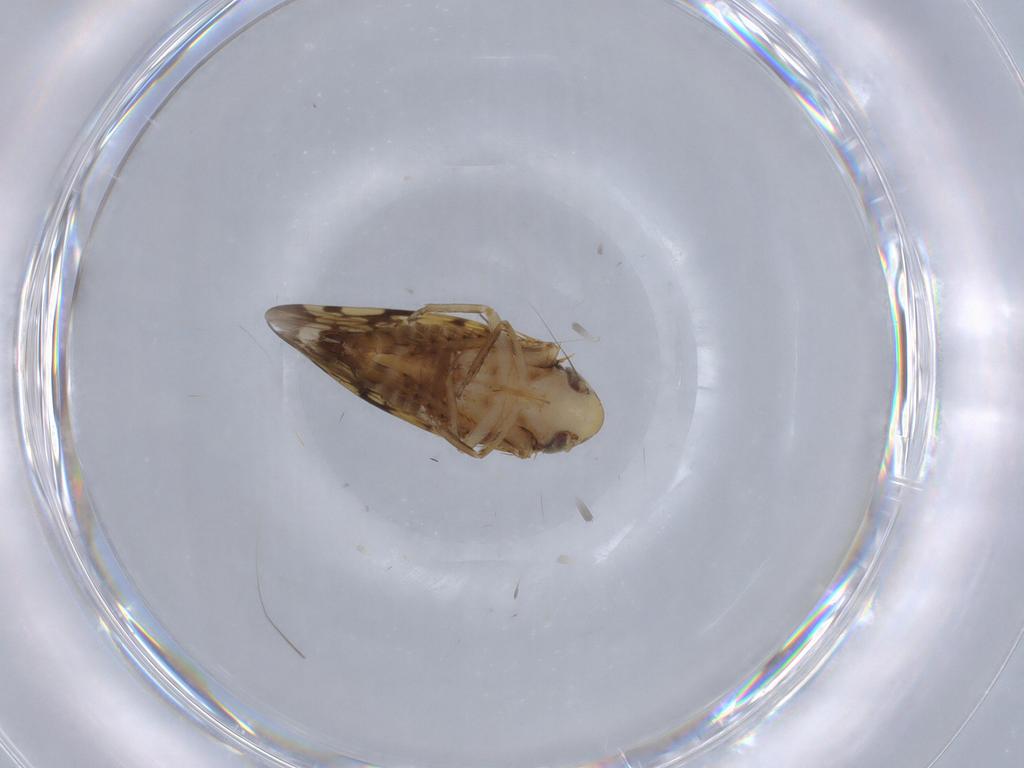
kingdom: Animalia
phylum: Arthropoda
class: Insecta
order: Hemiptera
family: Cicadellidae
